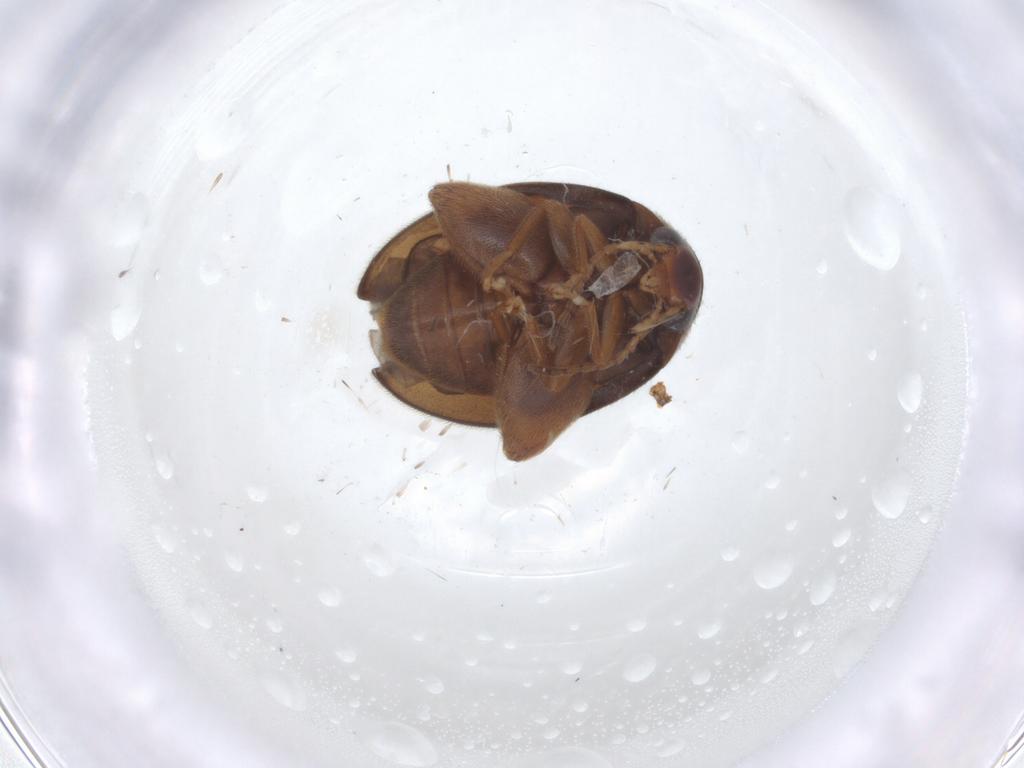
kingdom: Animalia
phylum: Arthropoda
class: Insecta
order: Coleoptera
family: Scirtidae
